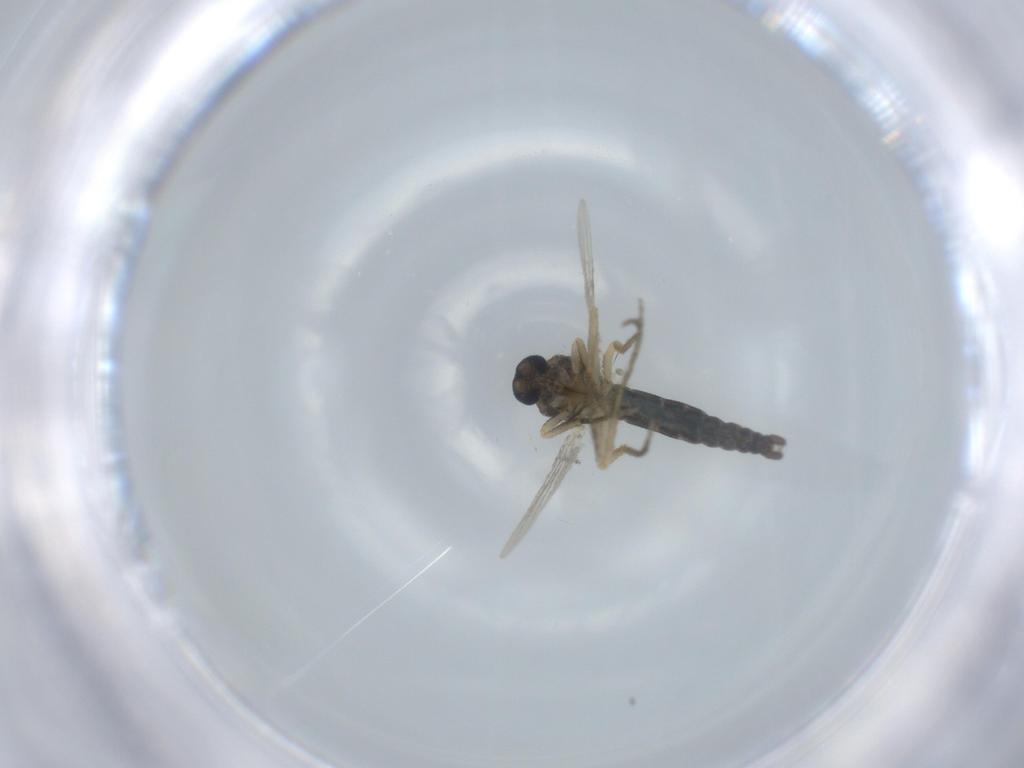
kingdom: Animalia
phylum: Arthropoda
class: Insecta
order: Diptera
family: Ceratopogonidae
